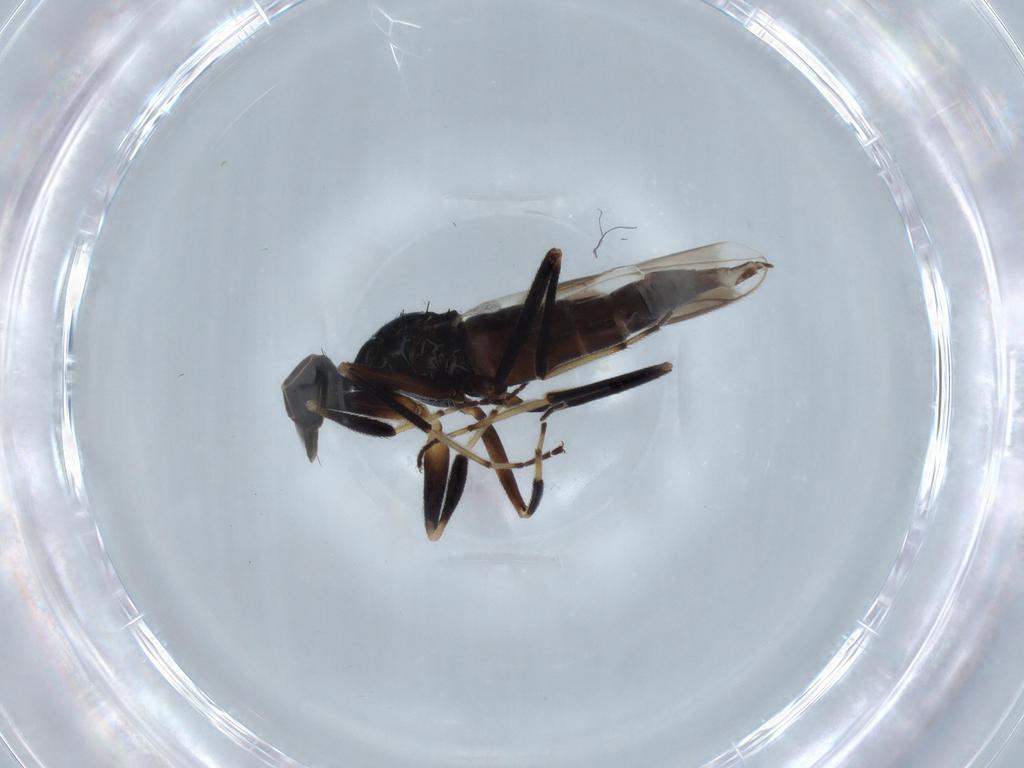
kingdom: Animalia
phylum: Arthropoda
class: Insecta
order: Diptera
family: Hybotidae
